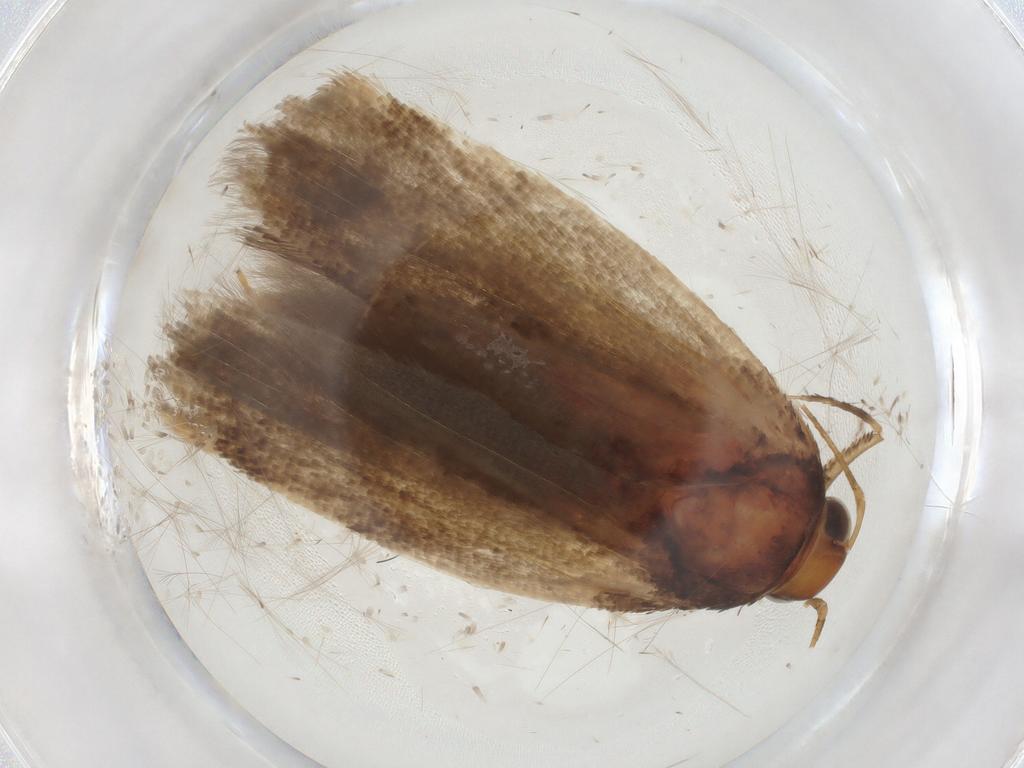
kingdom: Animalia
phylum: Arthropoda
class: Insecta
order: Lepidoptera
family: Gelechiidae
